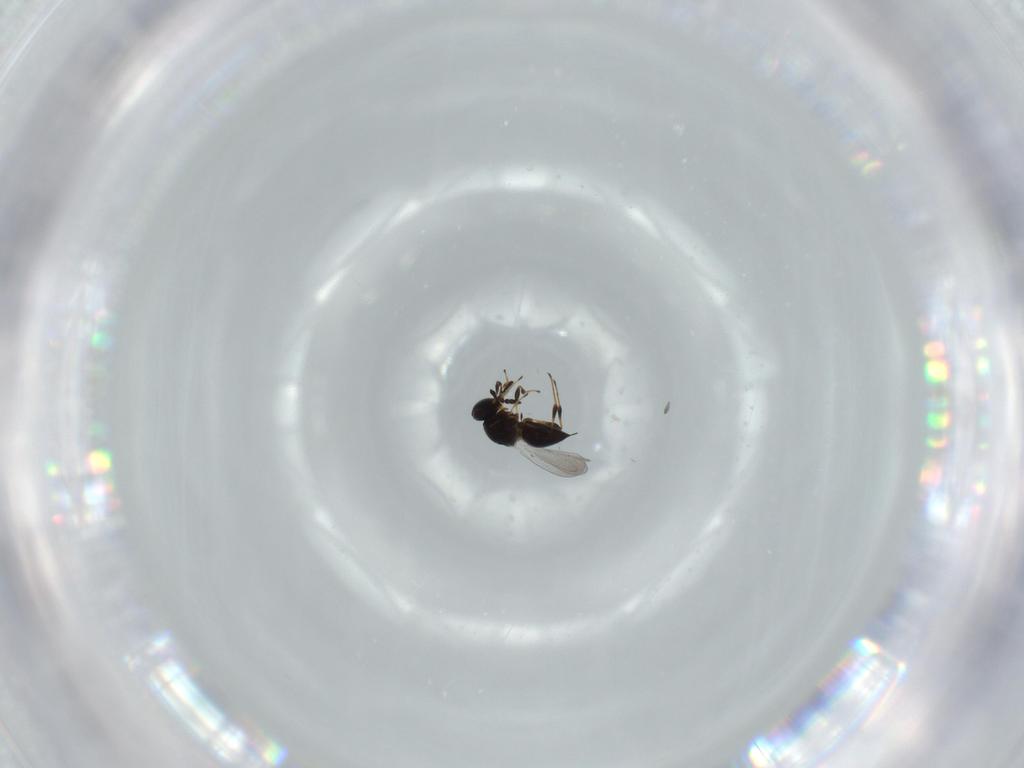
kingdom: Animalia
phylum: Arthropoda
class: Insecta
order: Hymenoptera
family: Platygastridae
